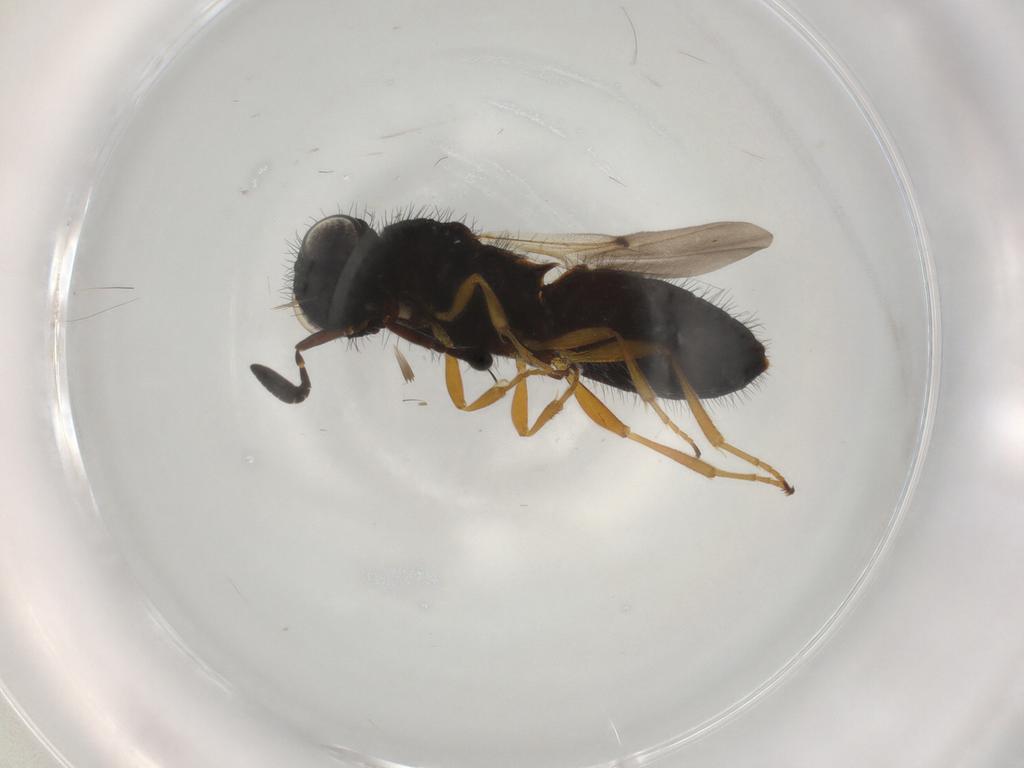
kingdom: Animalia
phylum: Arthropoda
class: Insecta
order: Hymenoptera
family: Scelionidae
